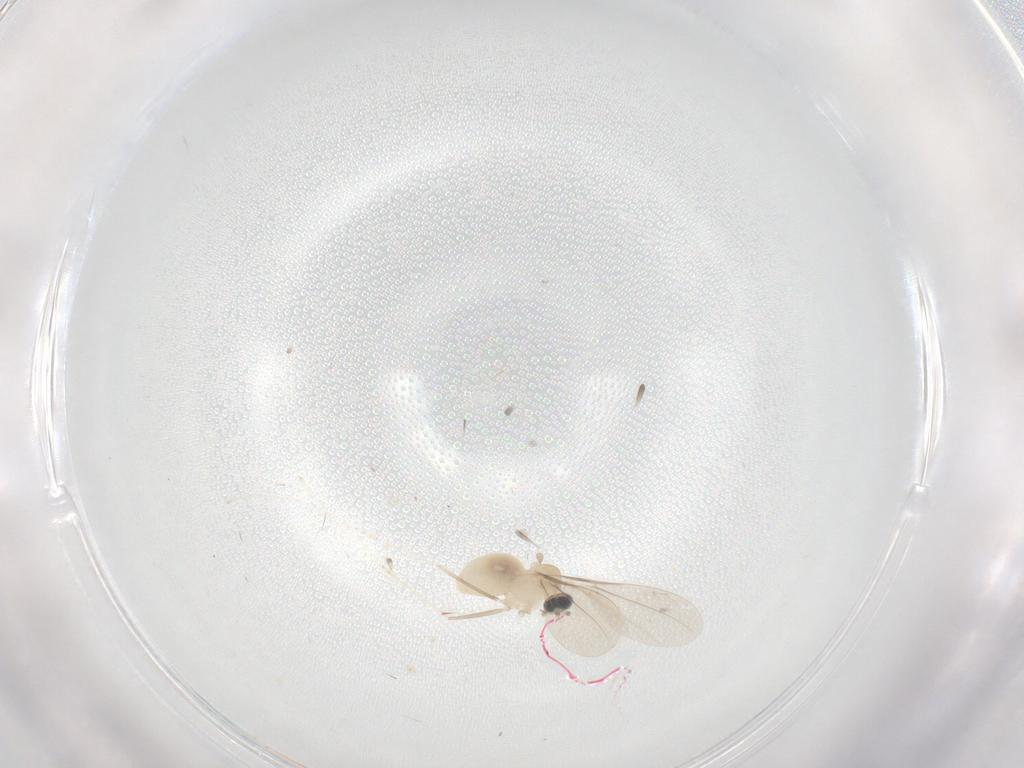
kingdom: Animalia
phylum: Arthropoda
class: Insecta
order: Diptera
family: Cecidomyiidae
